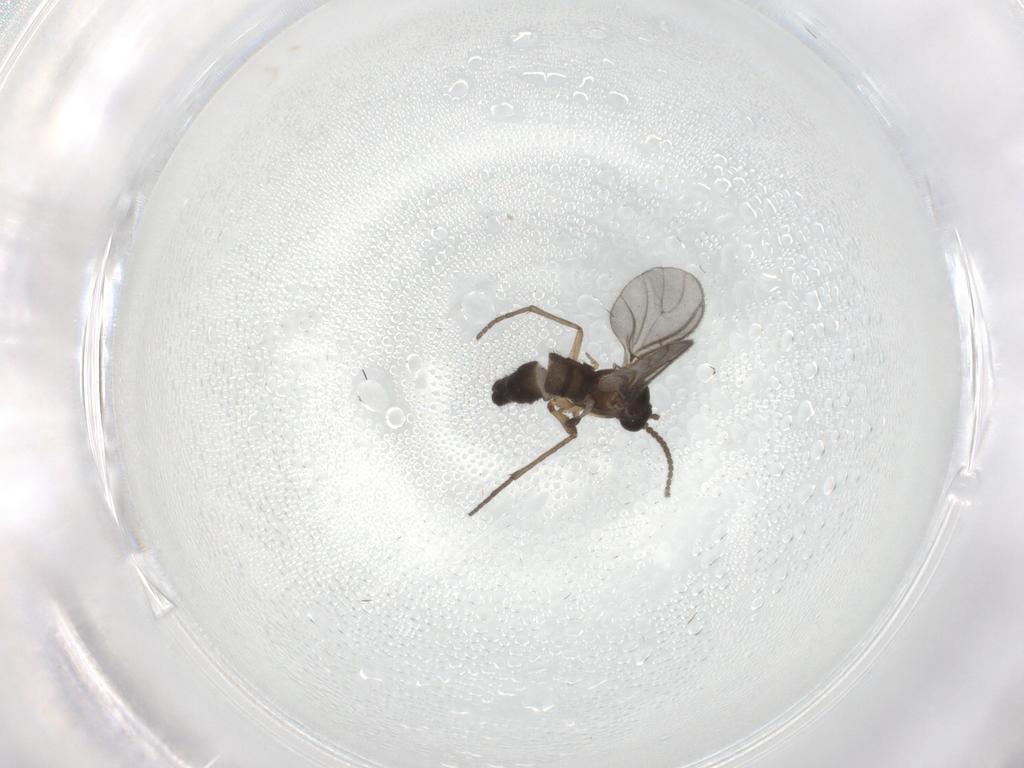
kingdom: Animalia
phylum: Arthropoda
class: Insecta
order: Diptera
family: Sciaridae
